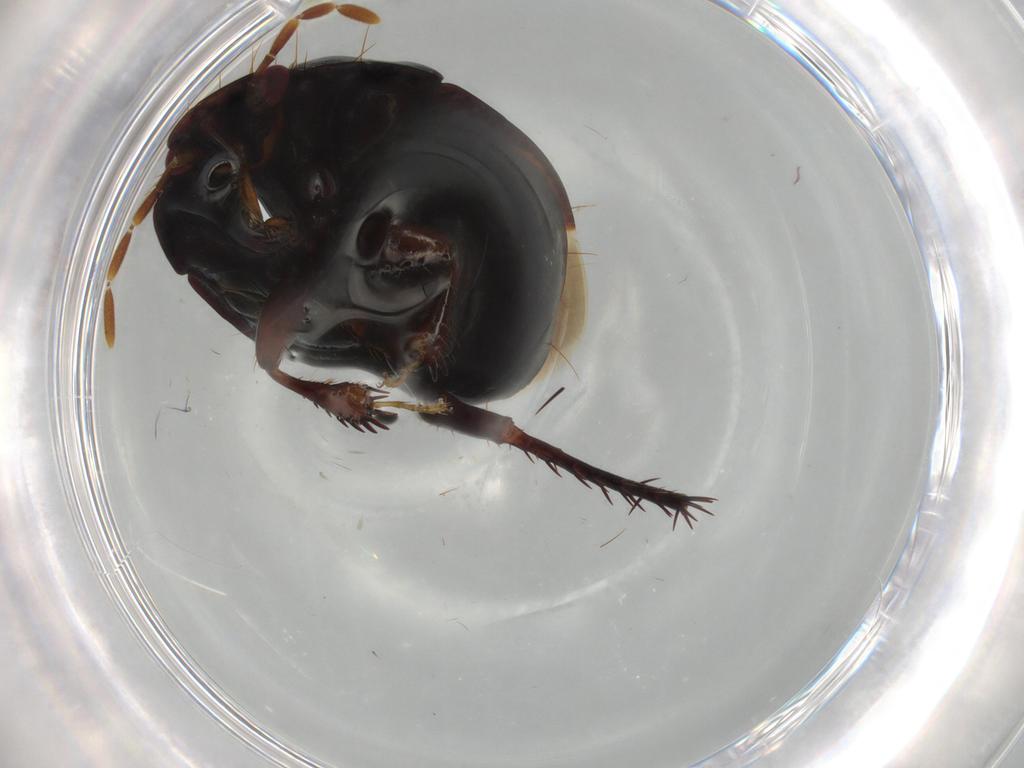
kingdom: Animalia
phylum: Arthropoda
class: Insecta
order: Hemiptera
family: Cydnidae
